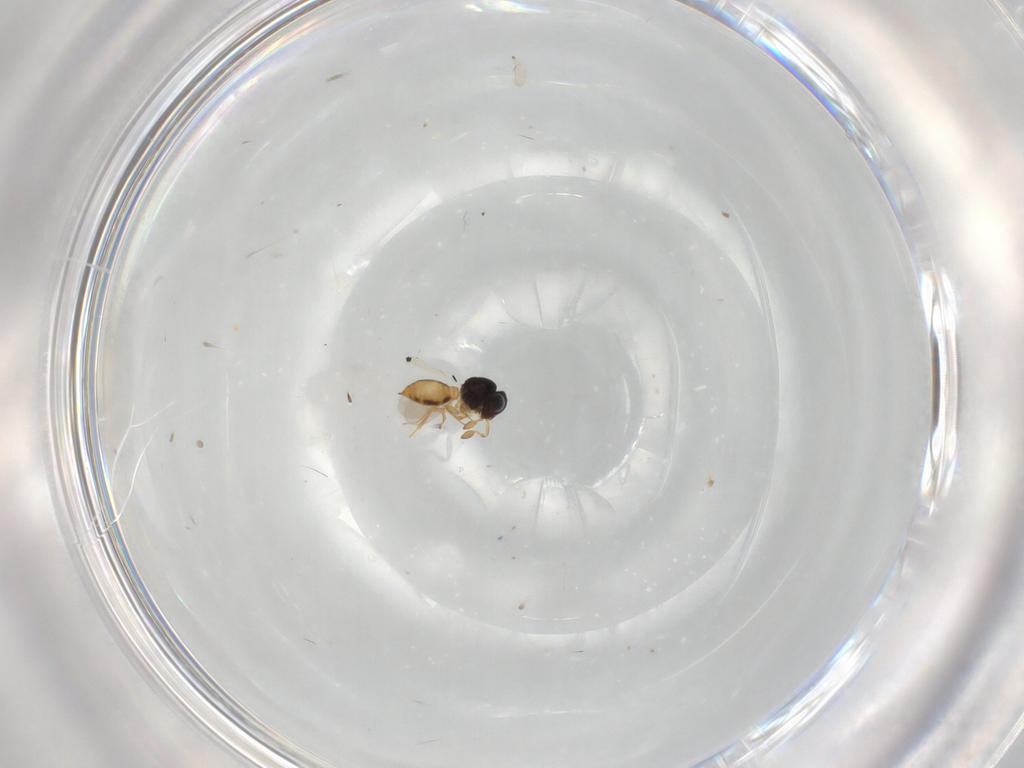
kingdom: Animalia
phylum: Arthropoda
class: Insecta
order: Hymenoptera
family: Scelionidae
